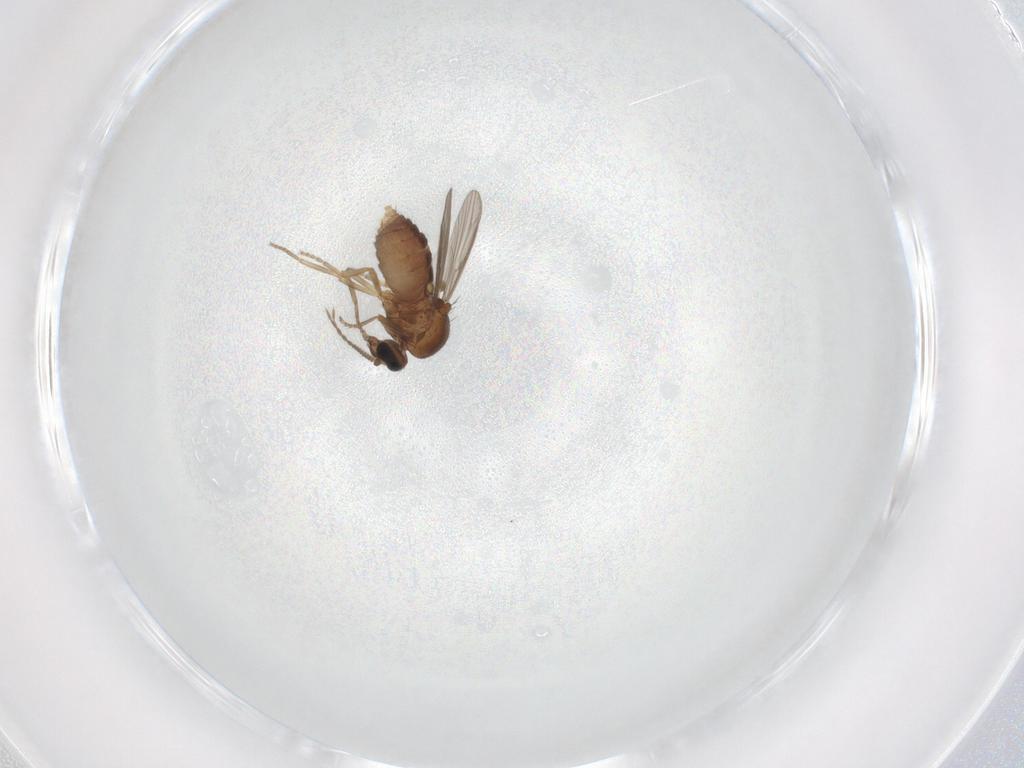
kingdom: Animalia
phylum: Arthropoda
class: Insecta
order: Diptera
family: Ceratopogonidae
